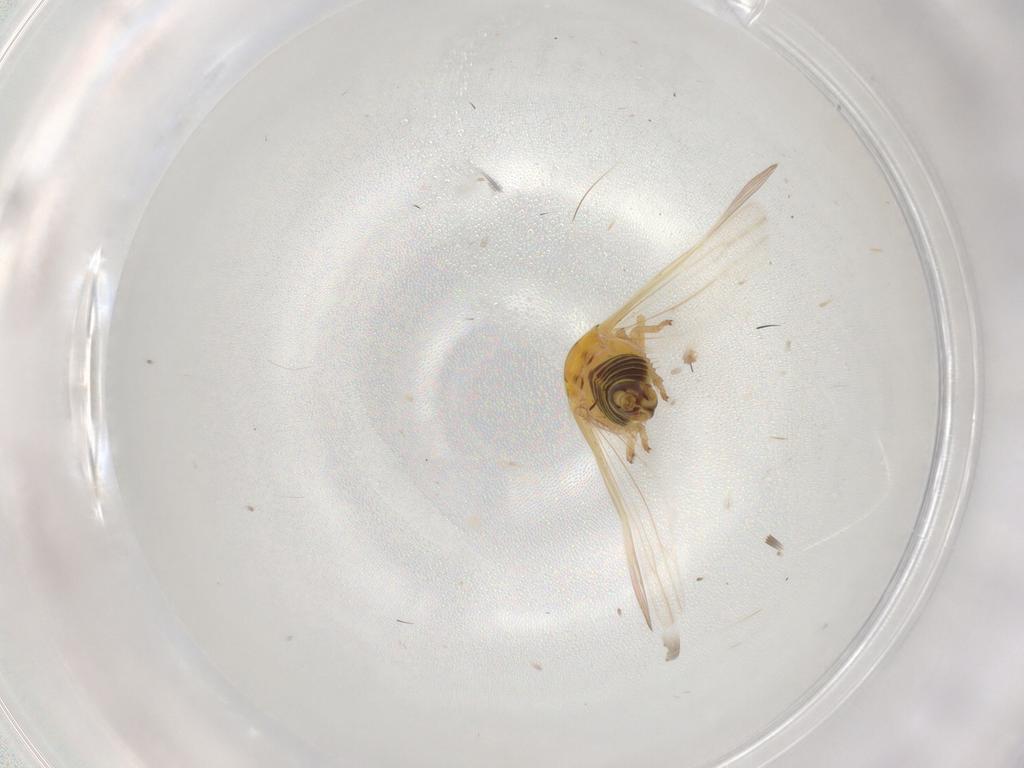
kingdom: Animalia
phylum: Arthropoda
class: Insecta
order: Hemiptera
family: Cicadellidae
